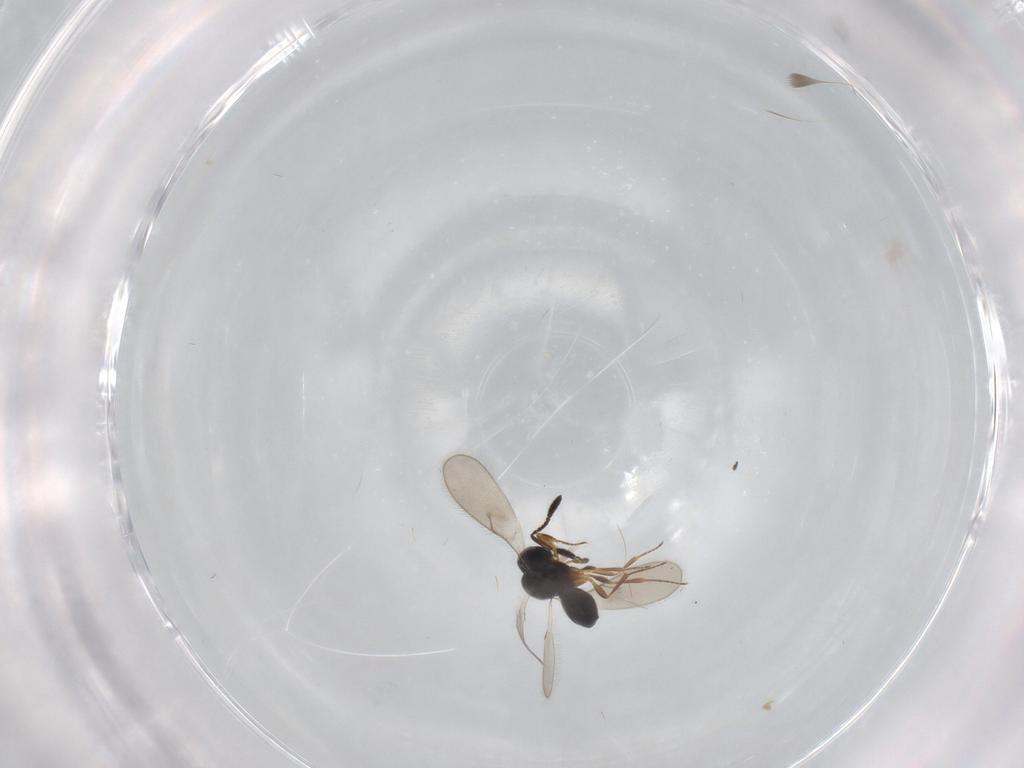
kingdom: Animalia
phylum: Arthropoda
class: Insecta
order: Hymenoptera
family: Scelionidae
